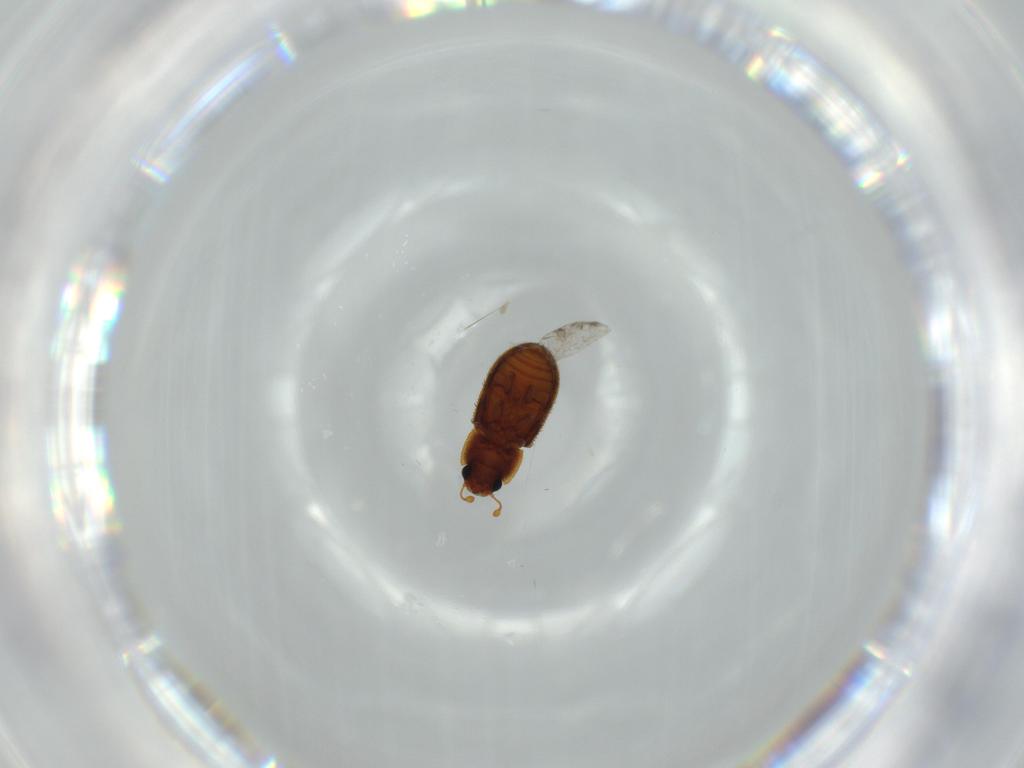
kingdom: Animalia
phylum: Arthropoda
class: Insecta
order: Coleoptera
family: Zopheridae
